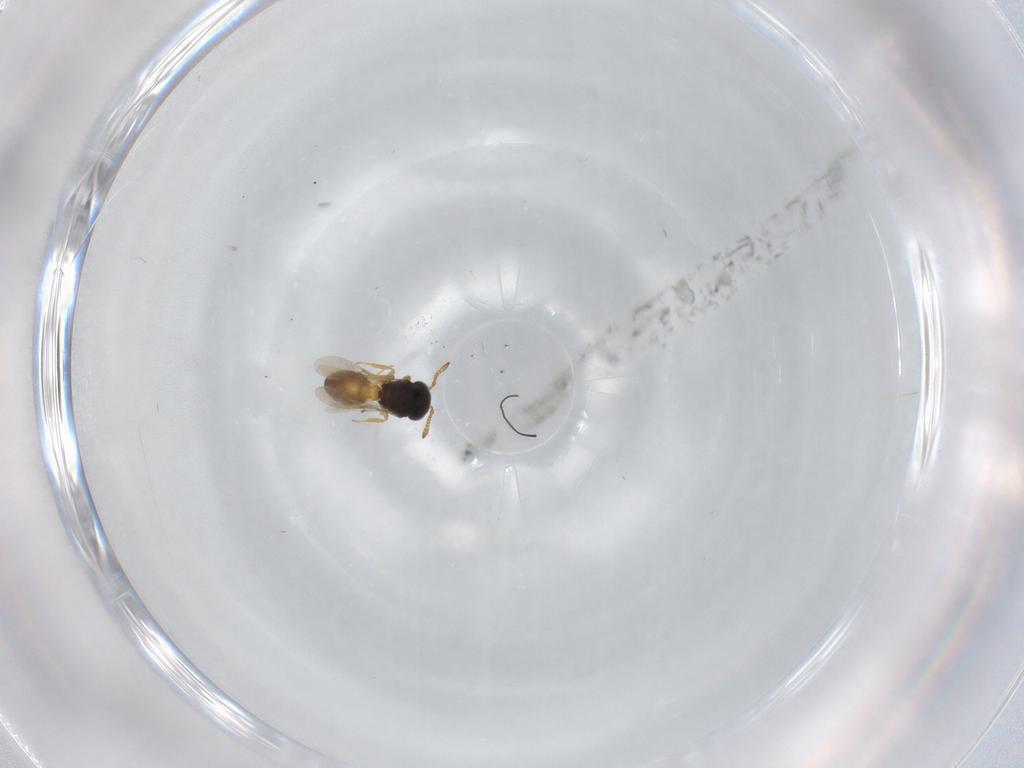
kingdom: Animalia
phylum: Arthropoda
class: Insecta
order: Hymenoptera
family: Scelionidae
